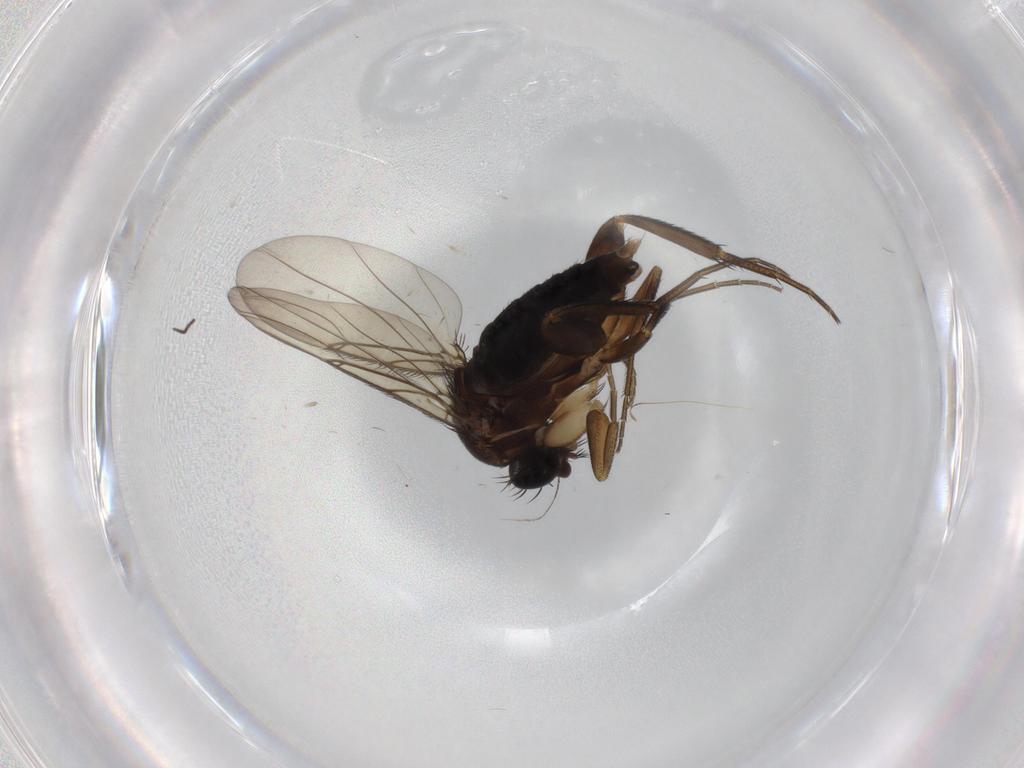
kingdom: Animalia
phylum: Arthropoda
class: Insecta
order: Diptera
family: Phoridae
